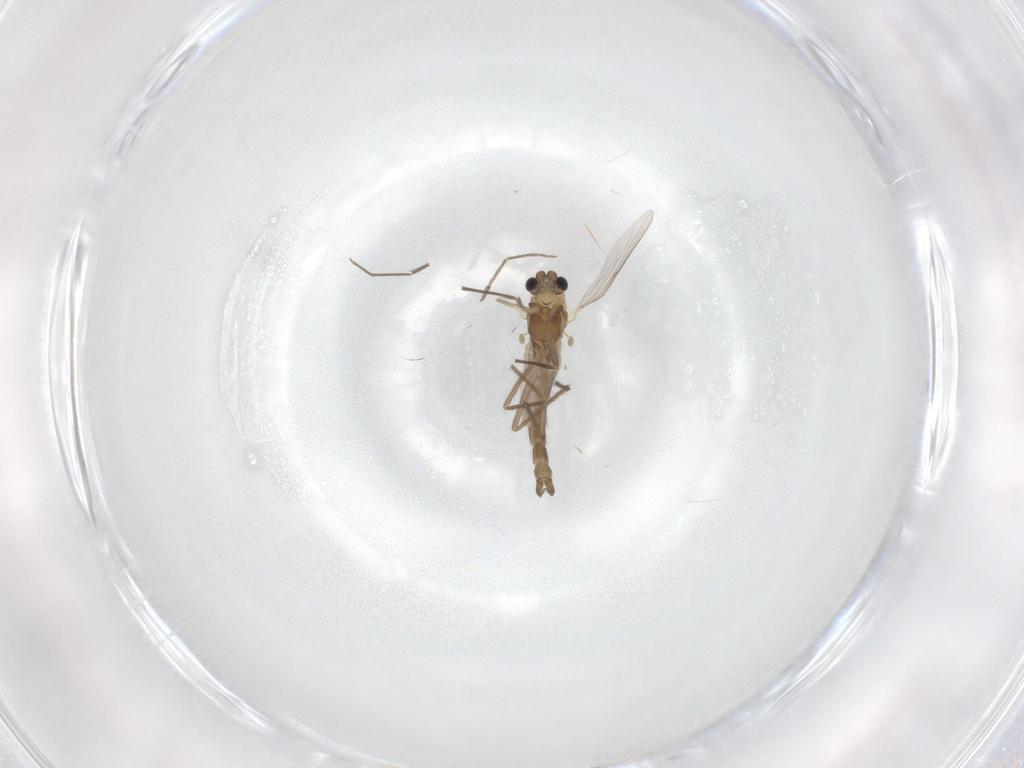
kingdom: Animalia
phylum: Arthropoda
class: Insecta
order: Diptera
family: Chironomidae
